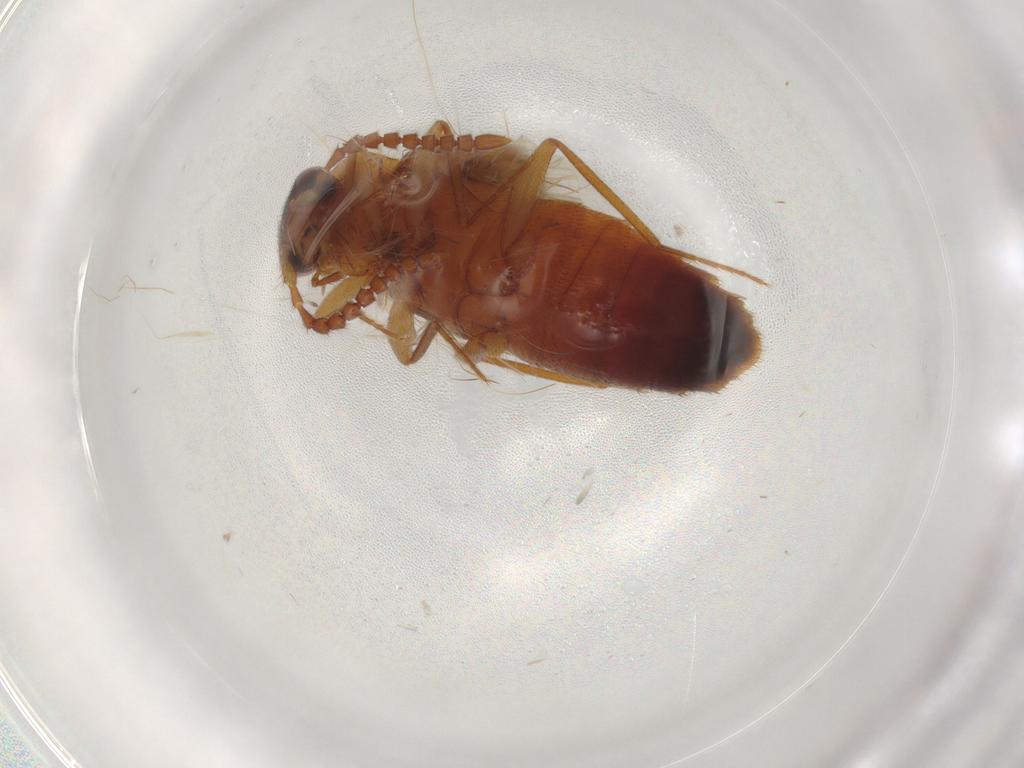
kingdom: Animalia
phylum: Arthropoda
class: Insecta
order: Coleoptera
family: Staphylinidae
